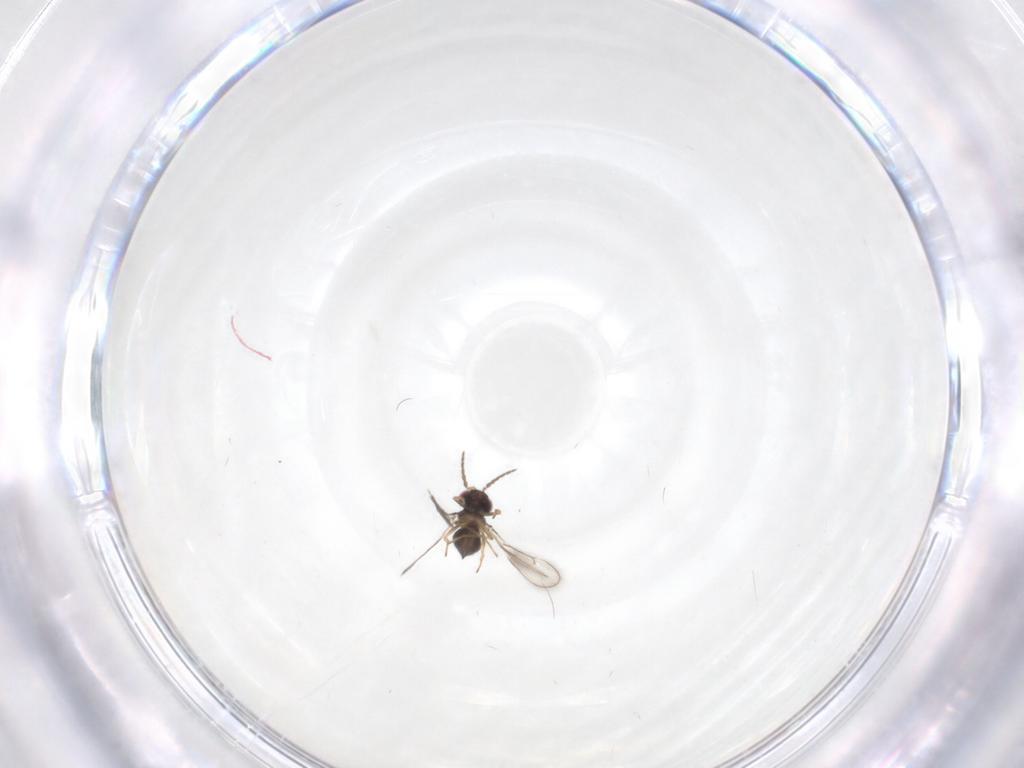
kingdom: Animalia
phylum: Arthropoda
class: Insecta
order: Hymenoptera
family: Eulophidae
